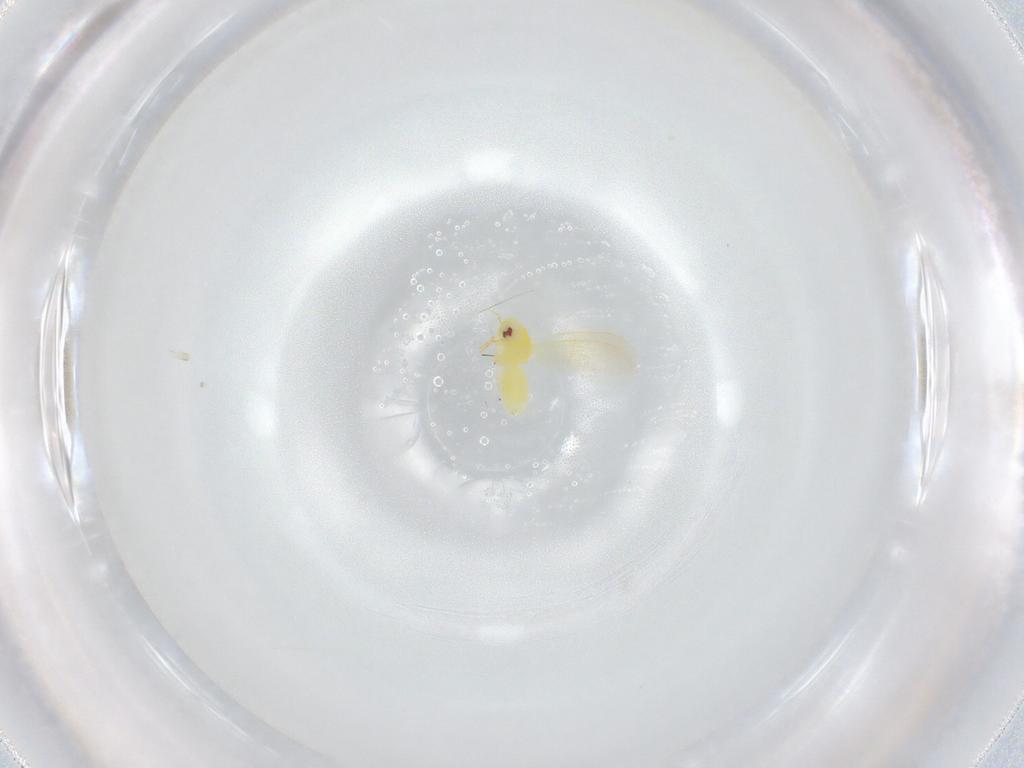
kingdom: Animalia
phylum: Arthropoda
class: Insecta
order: Hemiptera
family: Aleyrodidae
